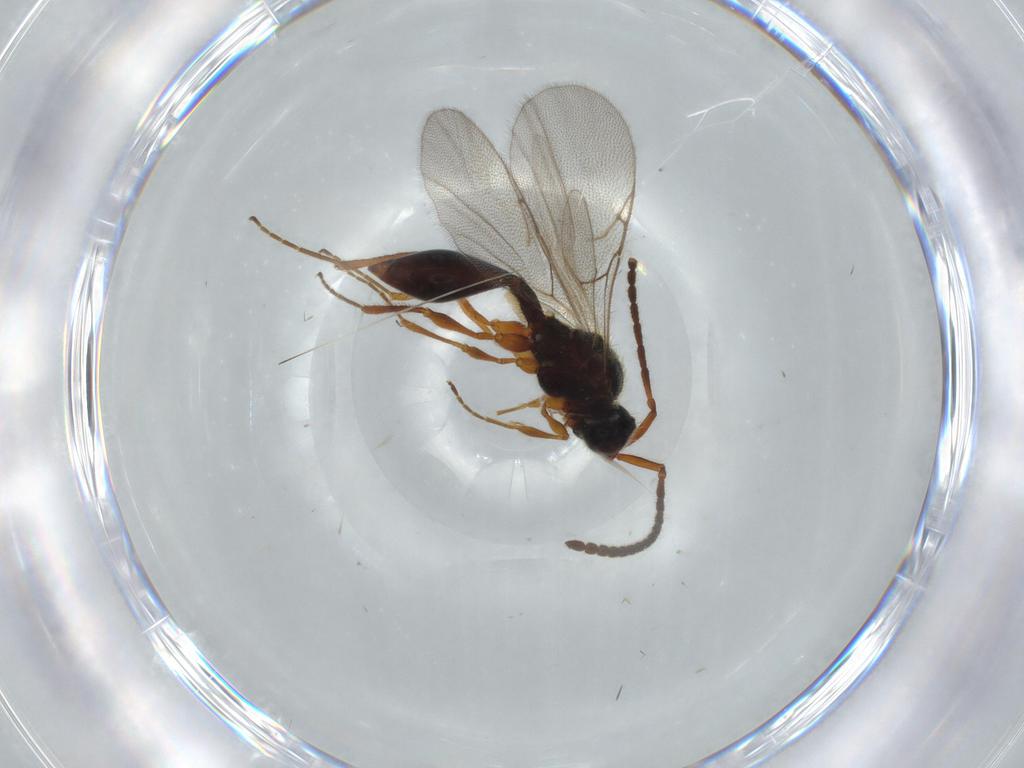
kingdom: Animalia
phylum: Arthropoda
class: Insecta
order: Hymenoptera
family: Diapriidae
